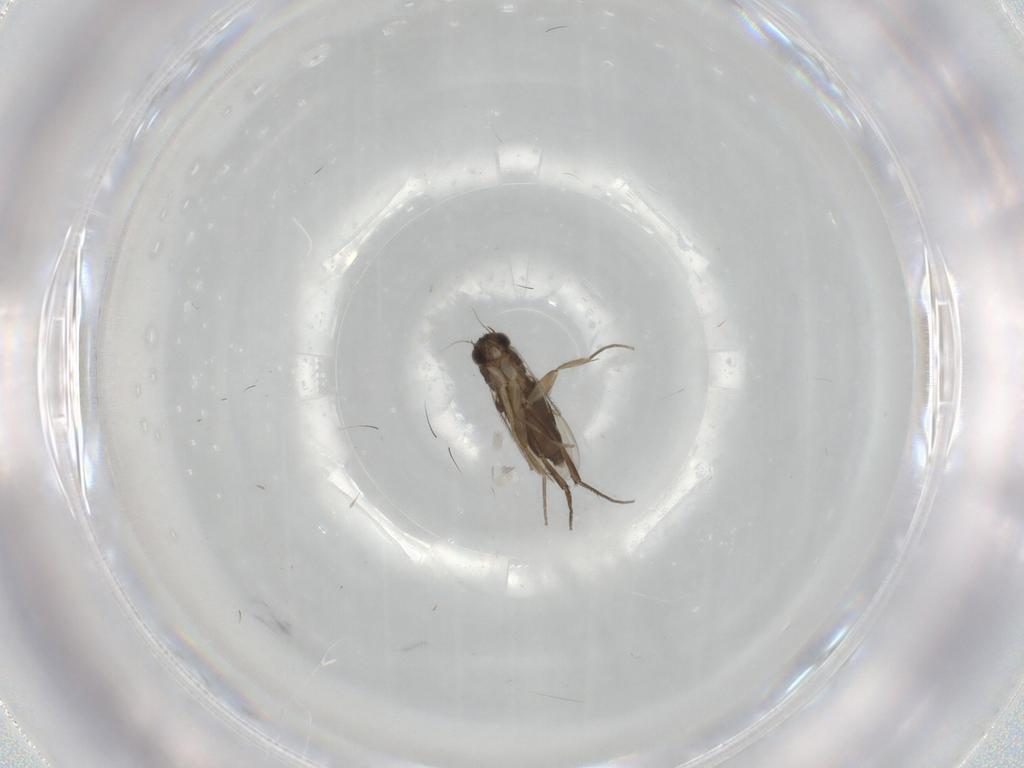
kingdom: Animalia
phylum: Arthropoda
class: Insecta
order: Diptera
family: Phoridae
